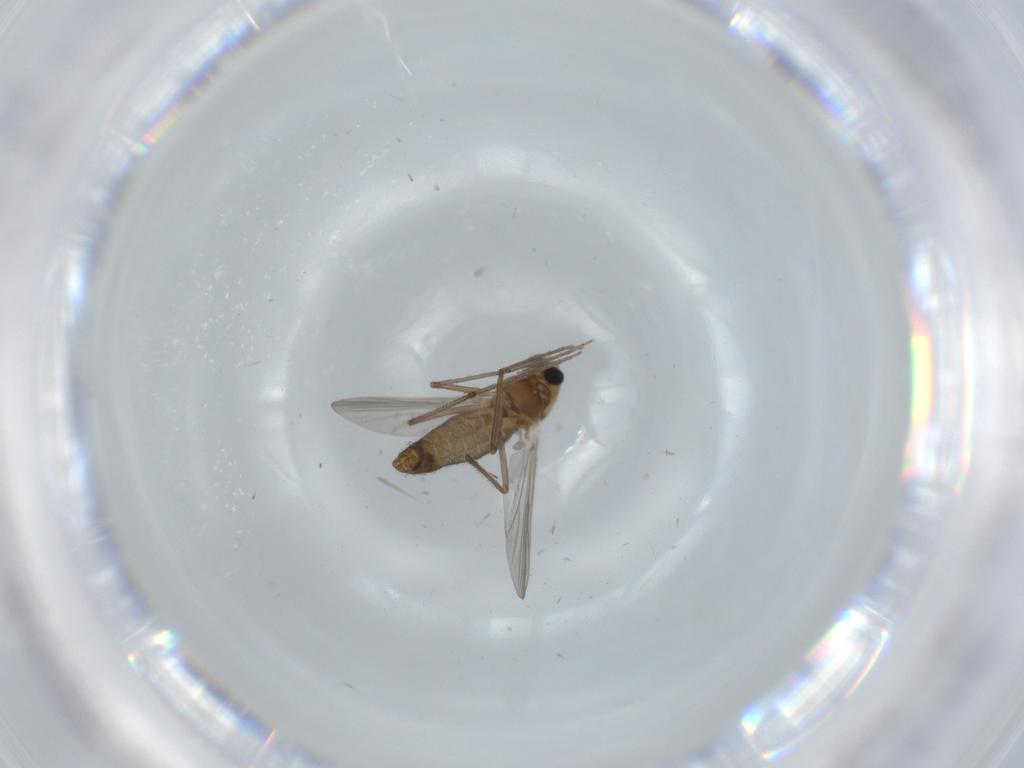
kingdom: Animalia
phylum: Arthropoda
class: Insecta
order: Diptera
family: Chironomidae
